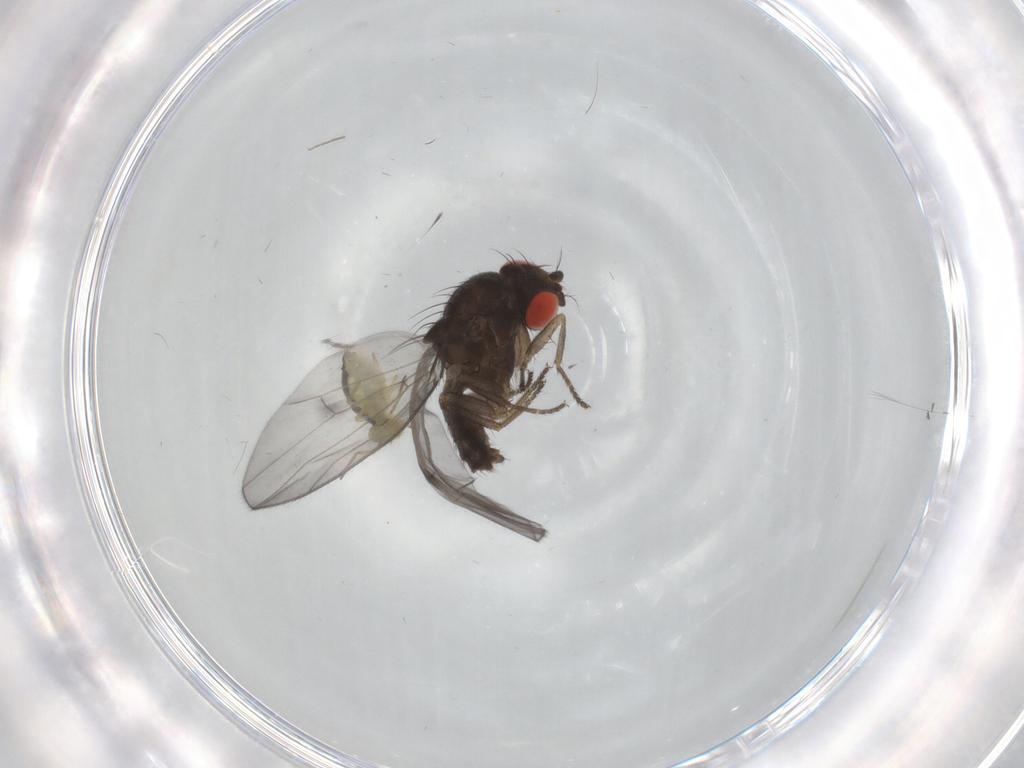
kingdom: Animalia
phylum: Arthropoda
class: Insecta
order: Diptera
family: Drosophilidae
